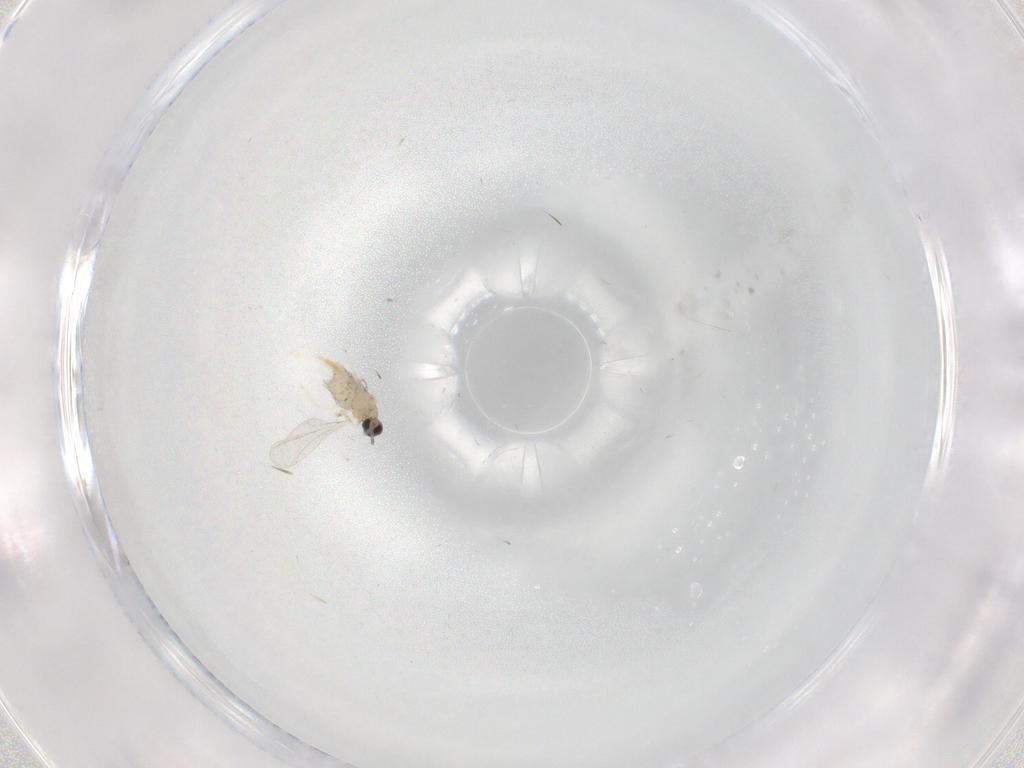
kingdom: Animalia
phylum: Arthropoda
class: Insecta
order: Diptera
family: Cecidomyiidae
